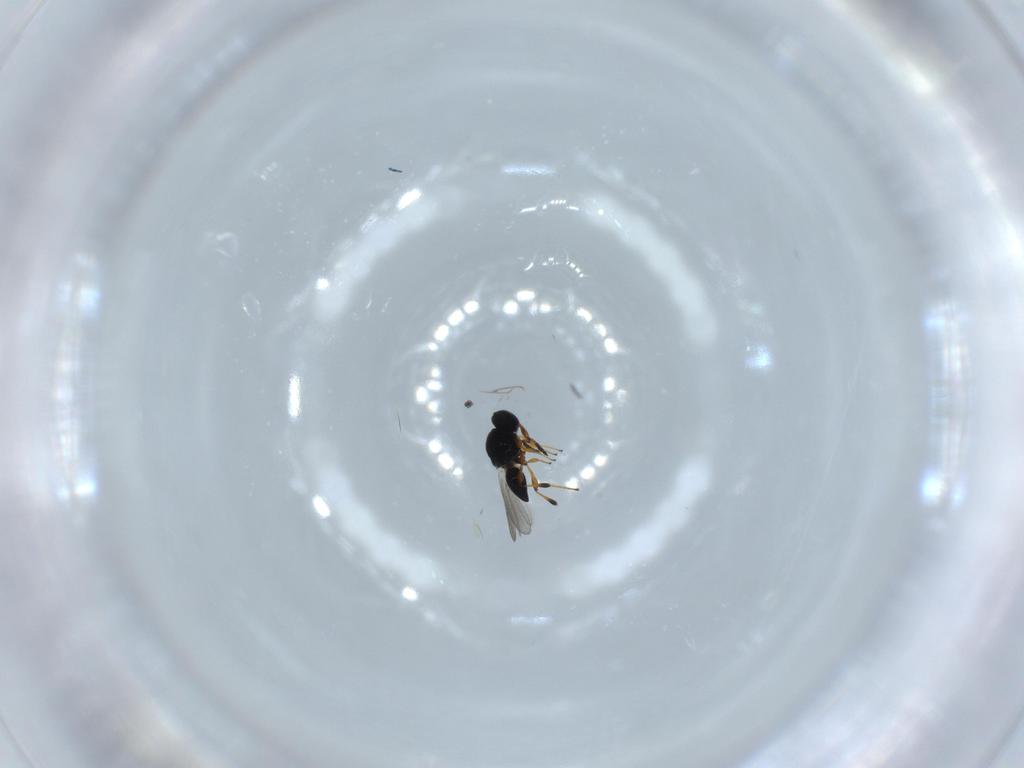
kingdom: Animalia
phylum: Arthropoda
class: Insecta
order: Hymenoptera
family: Platygastridae
